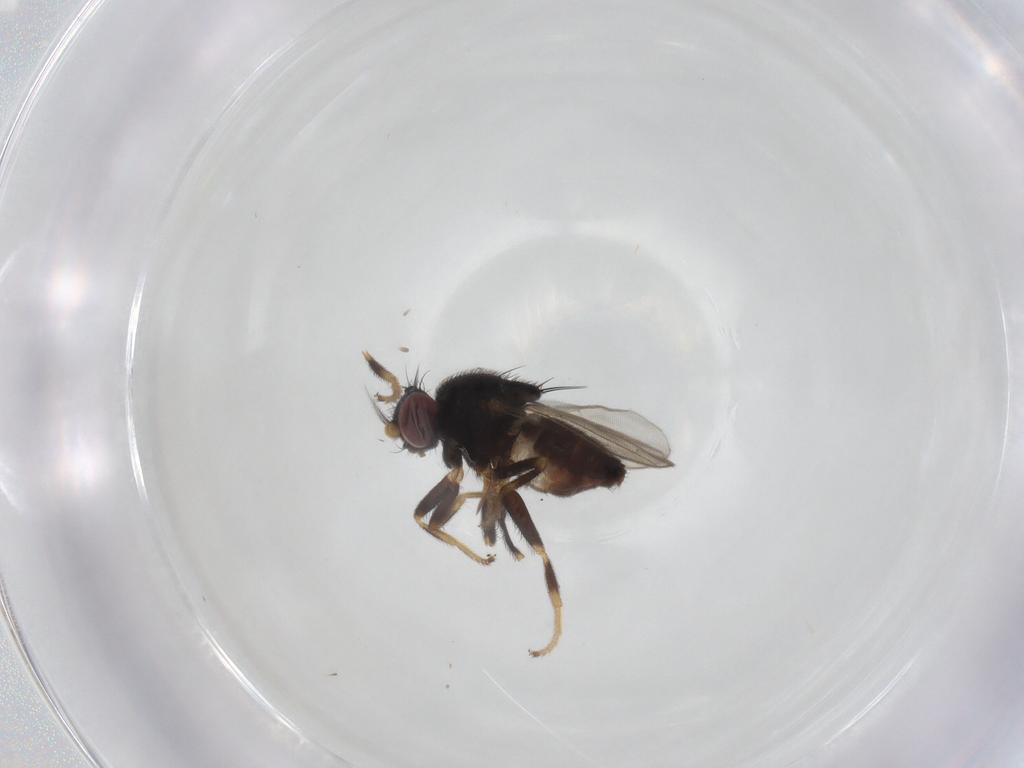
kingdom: Animalia
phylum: Arthropoda
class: Insecta
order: Diptera
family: Chloropidae
